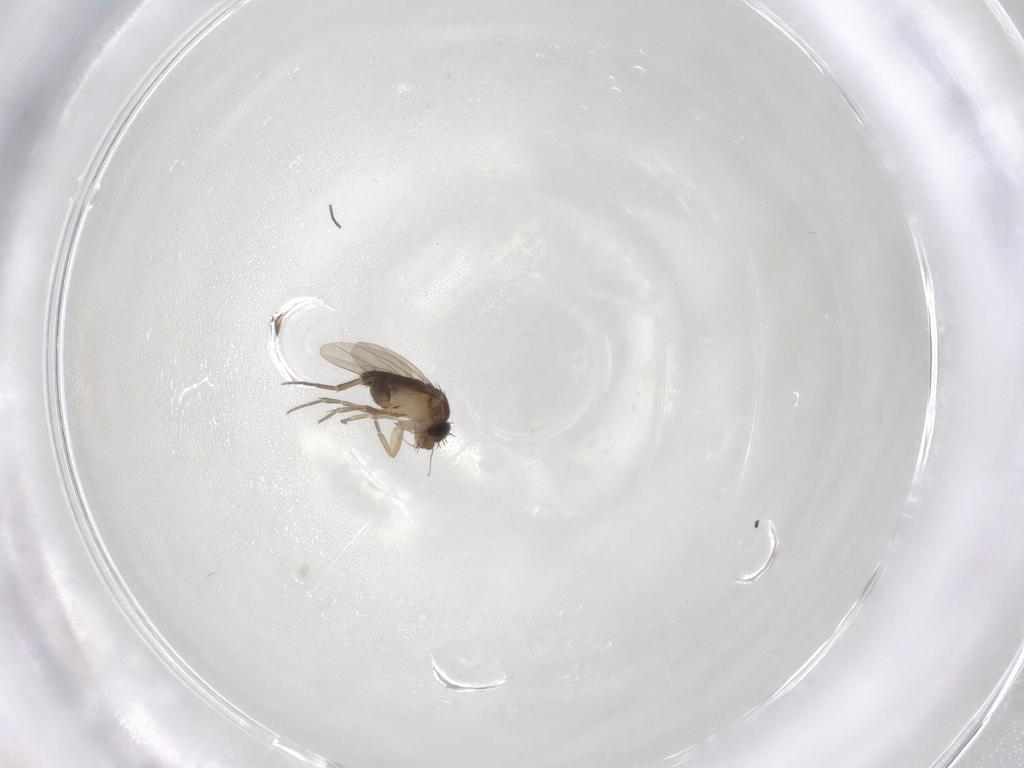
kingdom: Animalia
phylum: Arthropoda
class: Insecta
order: Diptera
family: Phoridae
